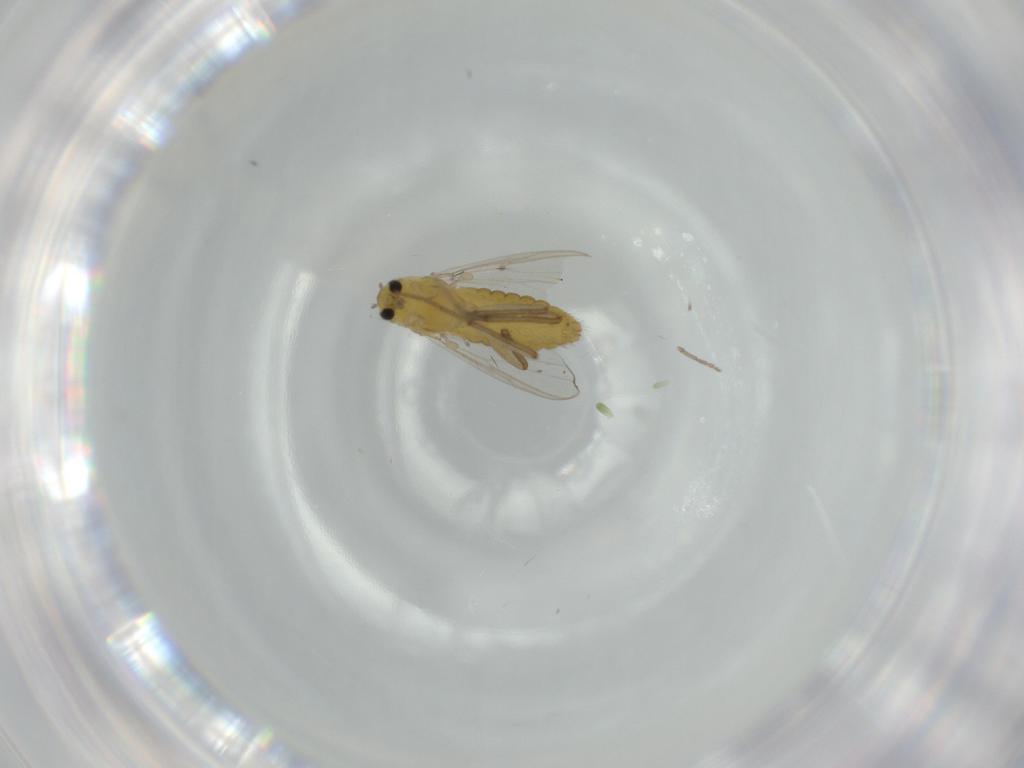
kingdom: Animalia
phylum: Arthropoda
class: Insecta
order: Diptera
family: Chironomidae
